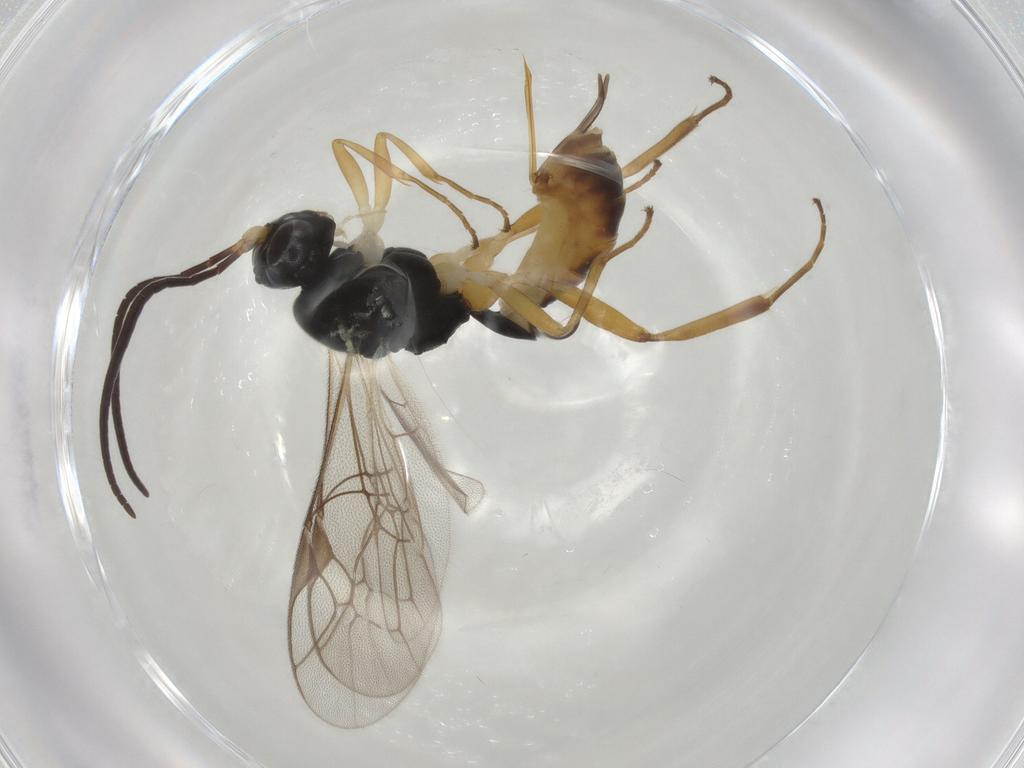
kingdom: Animalia
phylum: Arthropoda
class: Insecta
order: Hymenoptera
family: Ichneumonidae
